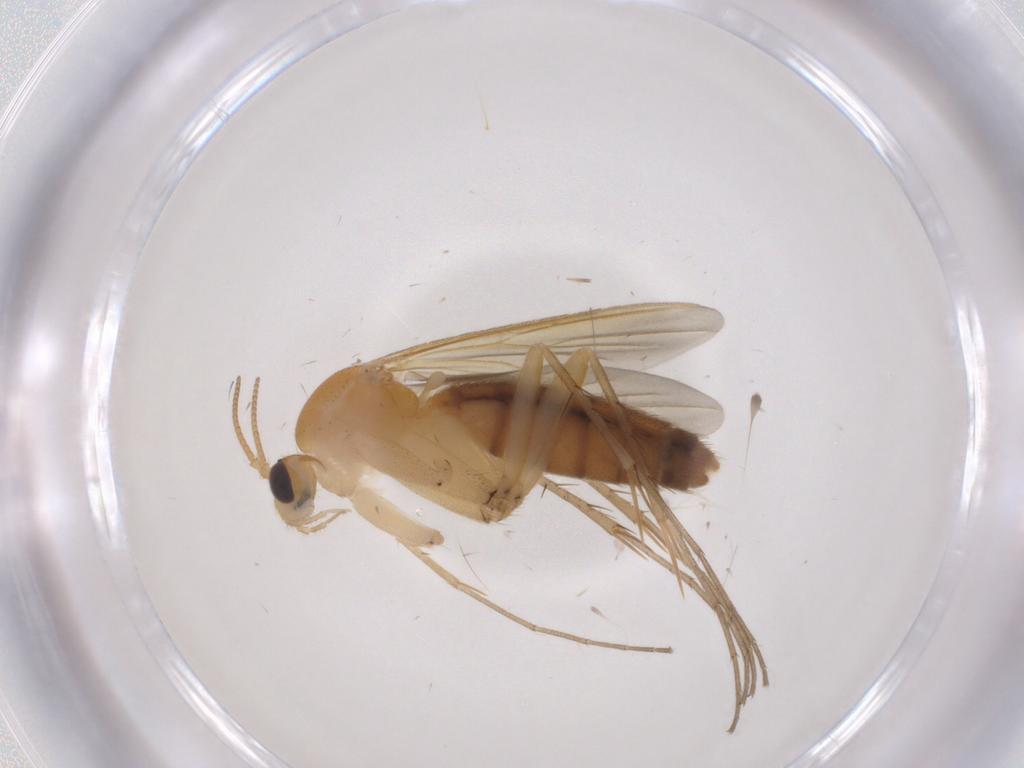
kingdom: Animalia
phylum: Arthropoda
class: Insecta
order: Diptera
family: Mycetophilidae
